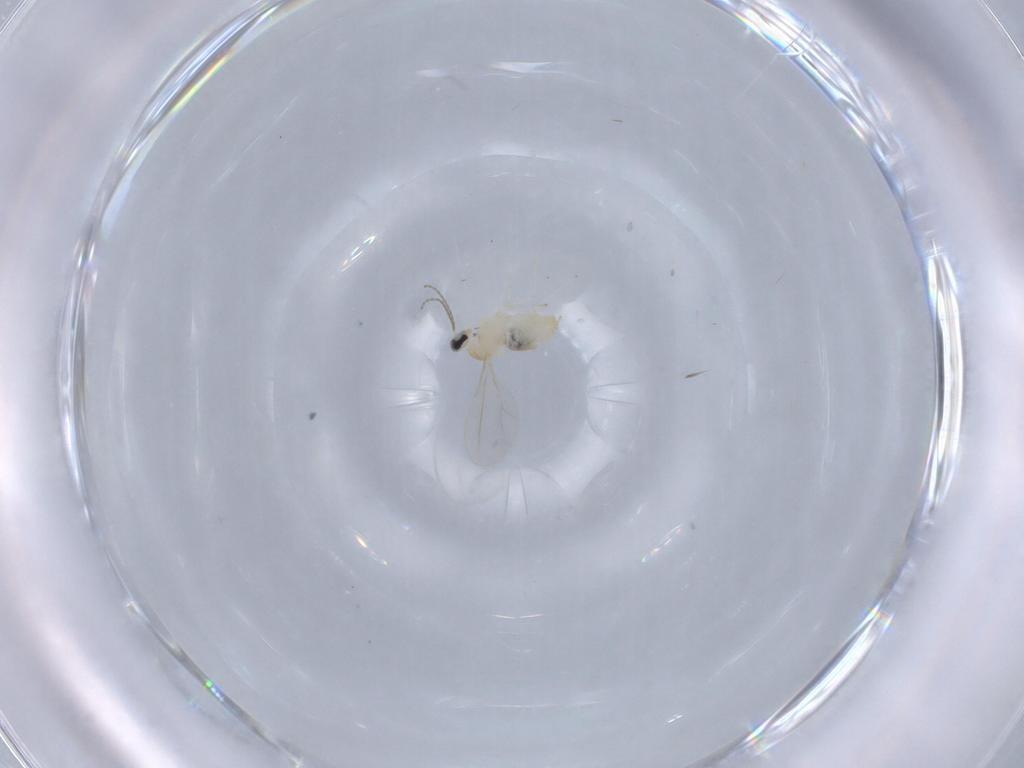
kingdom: Animalia
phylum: Arthropoda
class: Insecta
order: Diptera
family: Cecidomyiidae
